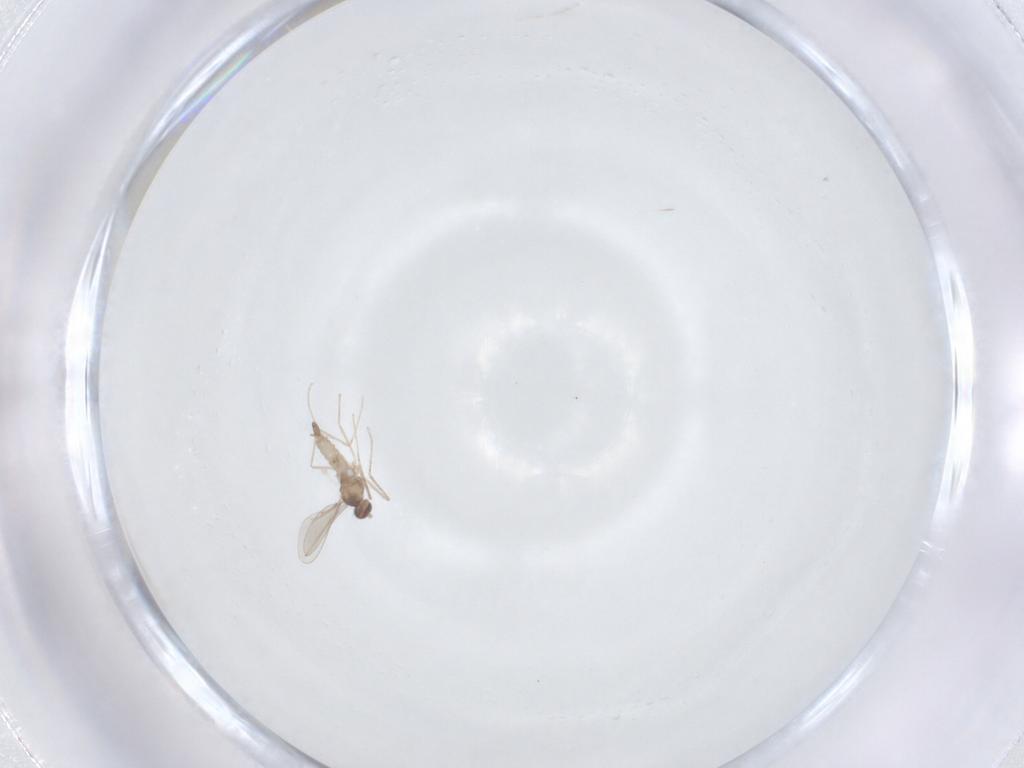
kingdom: Animalia
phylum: Arthropoda
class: Insecta
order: Diptera
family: Cecidomyiidae
